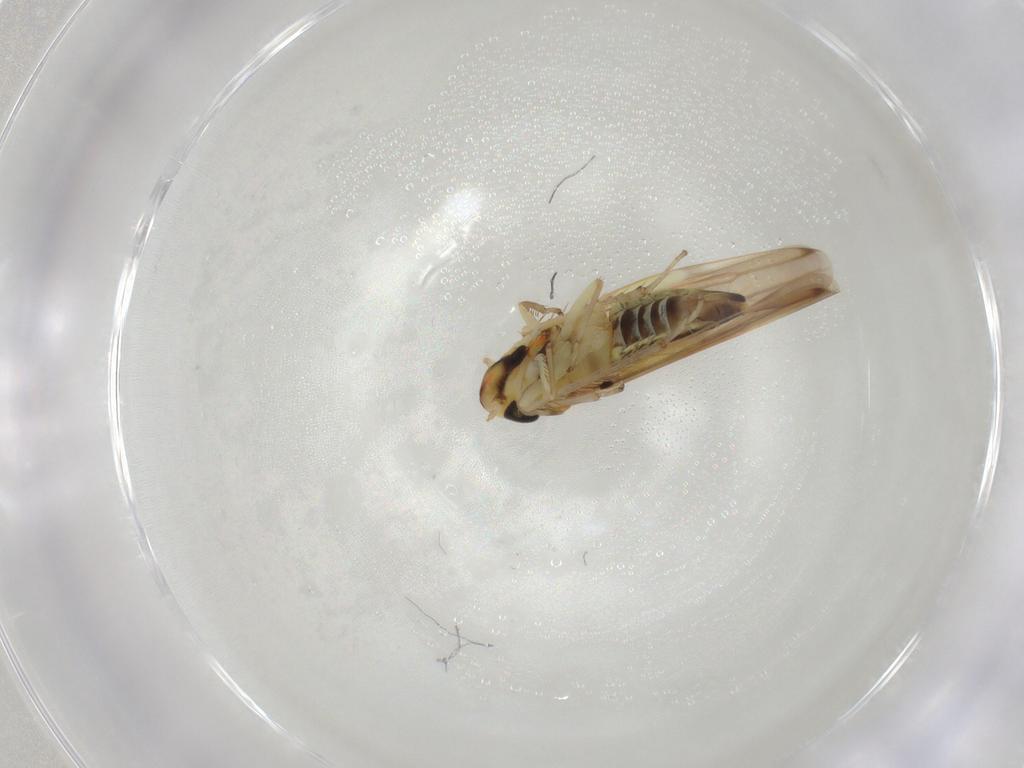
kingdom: Animalia
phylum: Arthropoda
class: Insecta
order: Hemiptera
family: Cicadellidae
